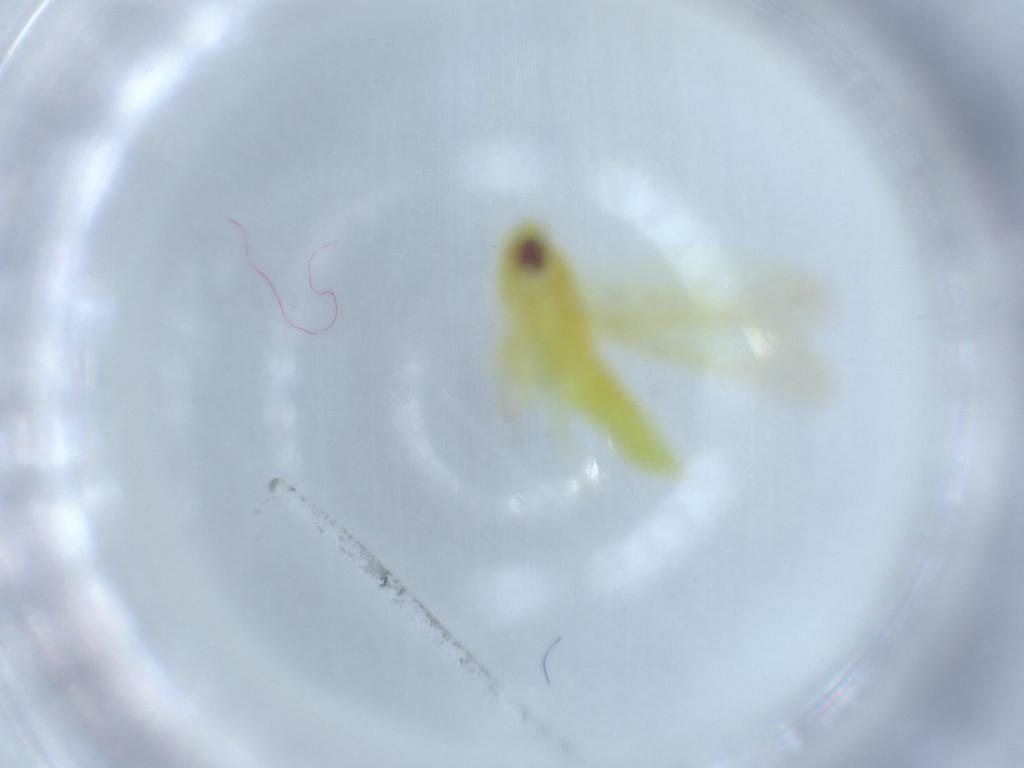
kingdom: Animalia
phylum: Arthropoda
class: Insecta
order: Hemiptera
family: Cicadellidae
